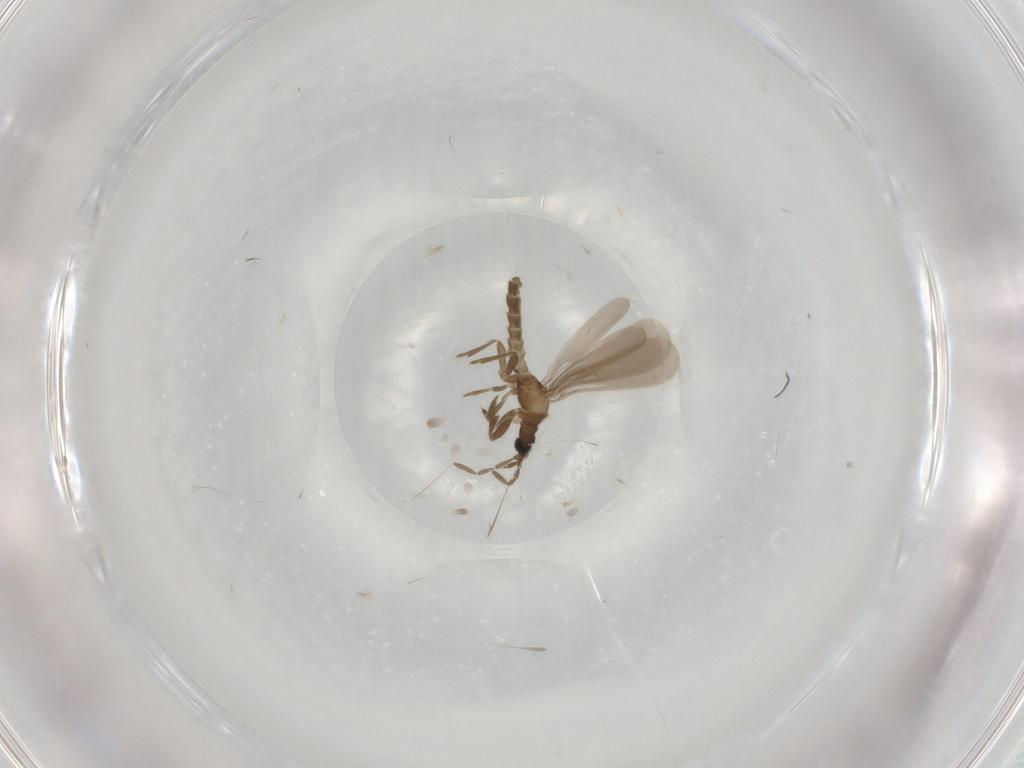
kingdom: Animalia
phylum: Arthropoda
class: Insecta
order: Hemiptera
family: Enicocephalidae
